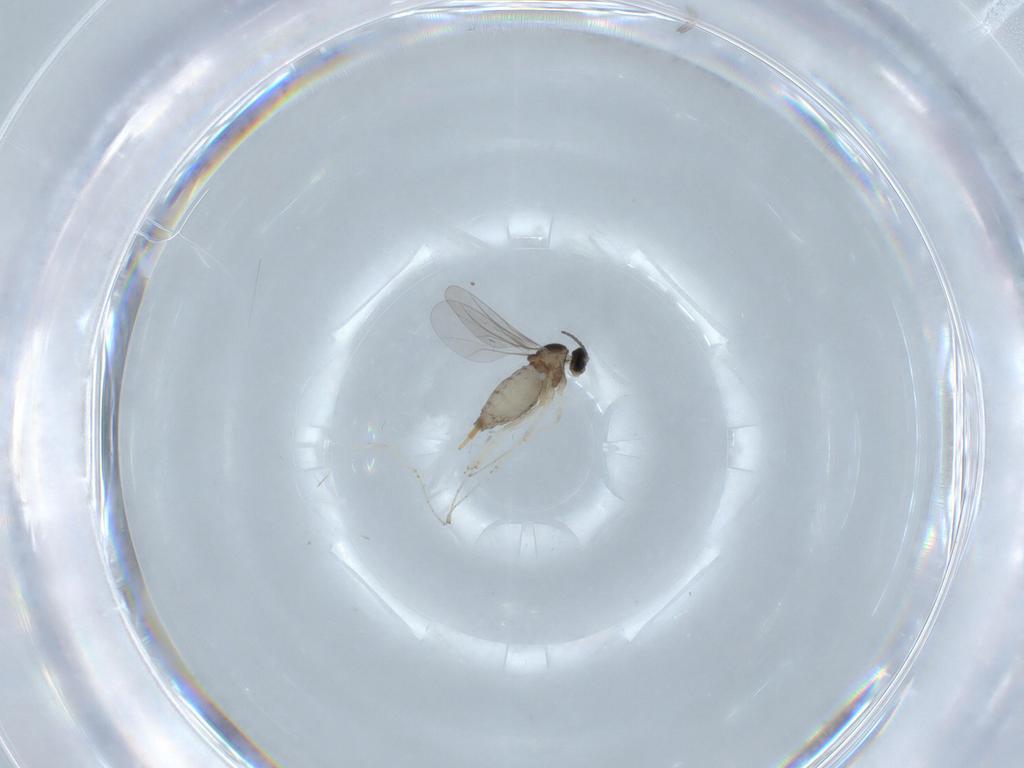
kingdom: Animalia
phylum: Arthropoda
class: Insecta
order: Diptera
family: Cecidomyiidae
